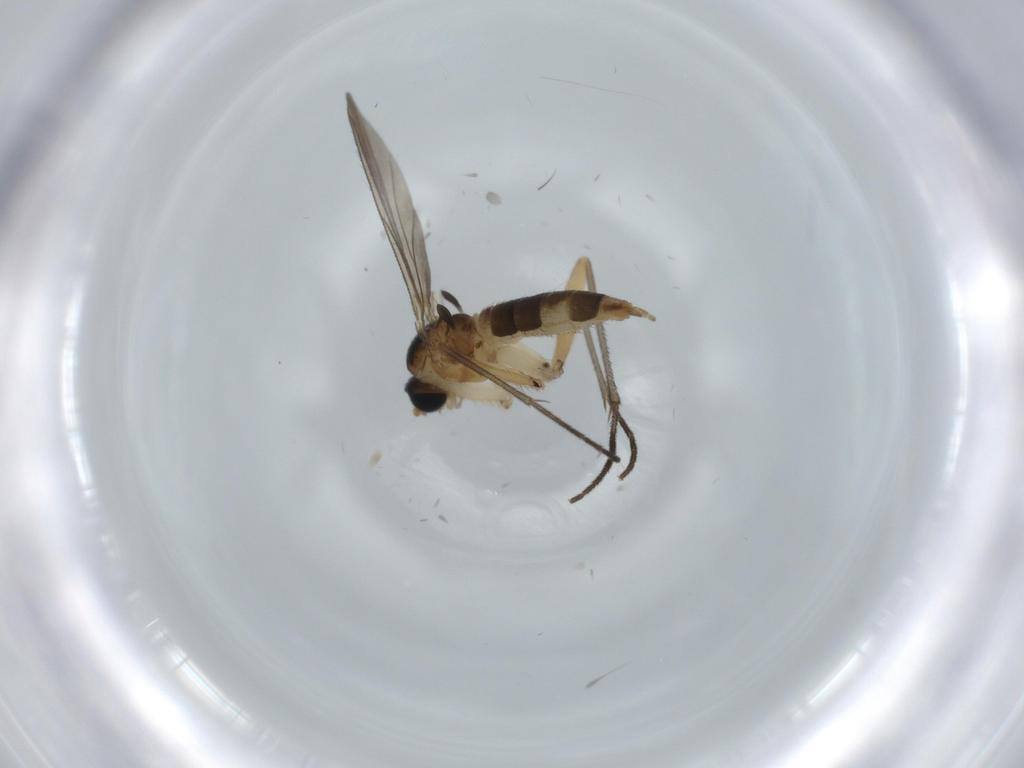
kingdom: Animalia
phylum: Arthropoda
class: Insecta
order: Diptera
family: Sciaridae
